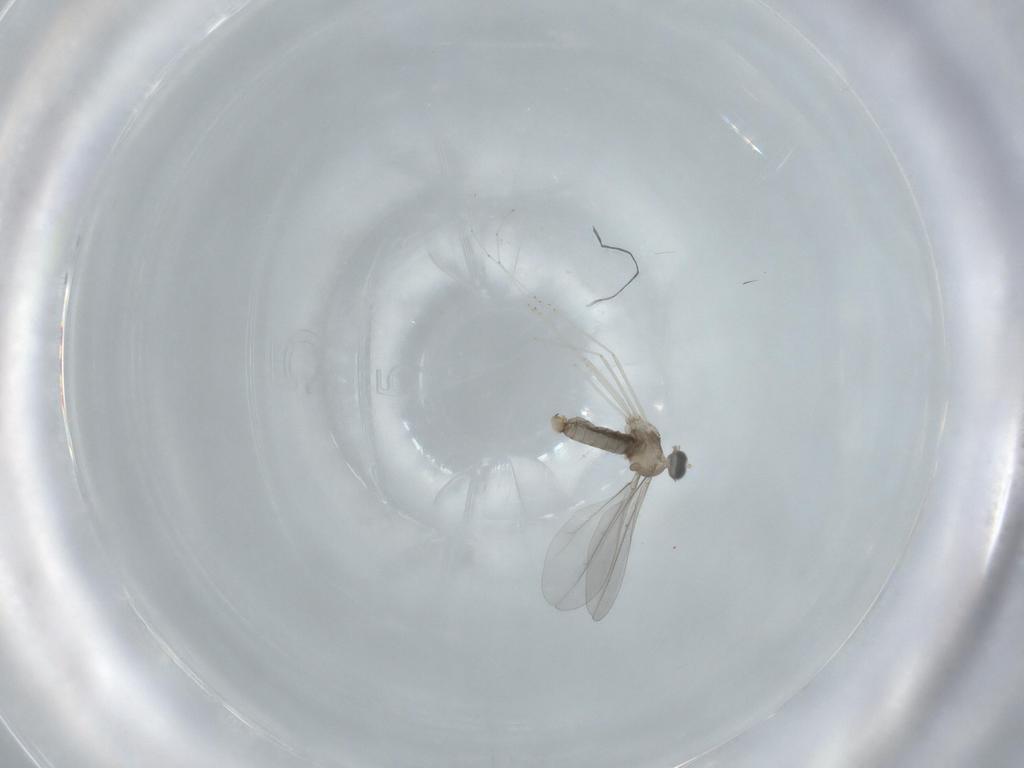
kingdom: Animalia
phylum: Arthropoda
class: Insecta
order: Diptera
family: Cecidomyiidae
